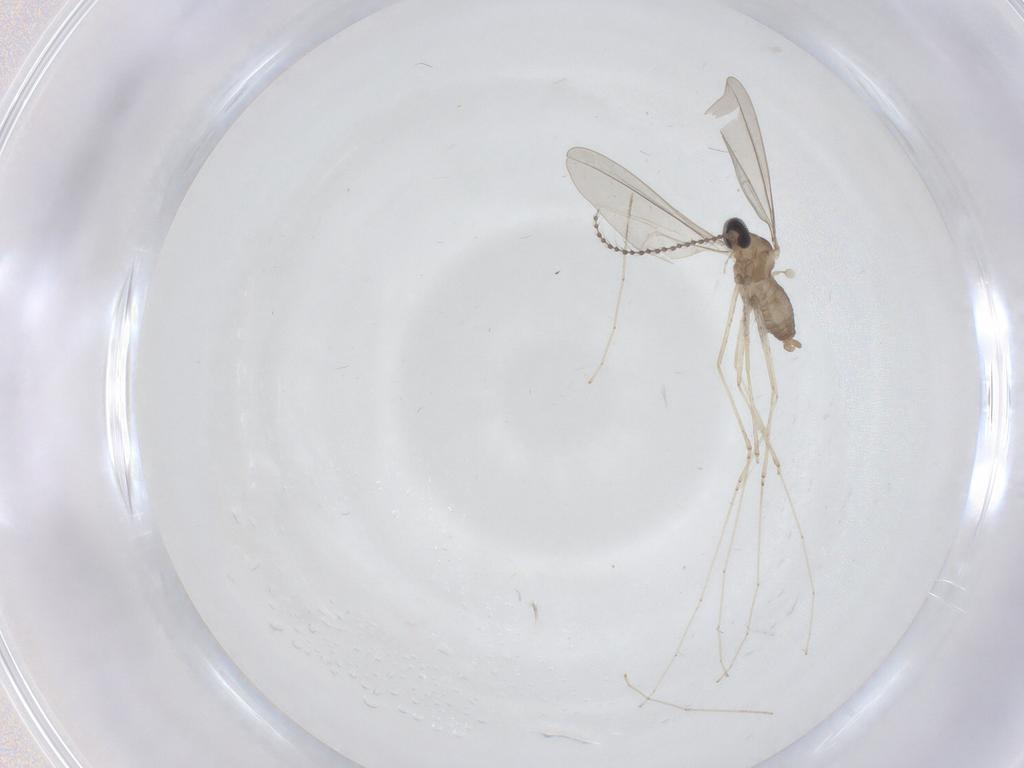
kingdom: Animalia
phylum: Arthropoda
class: Insecta
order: Diptera
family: Cecidomyiidae
